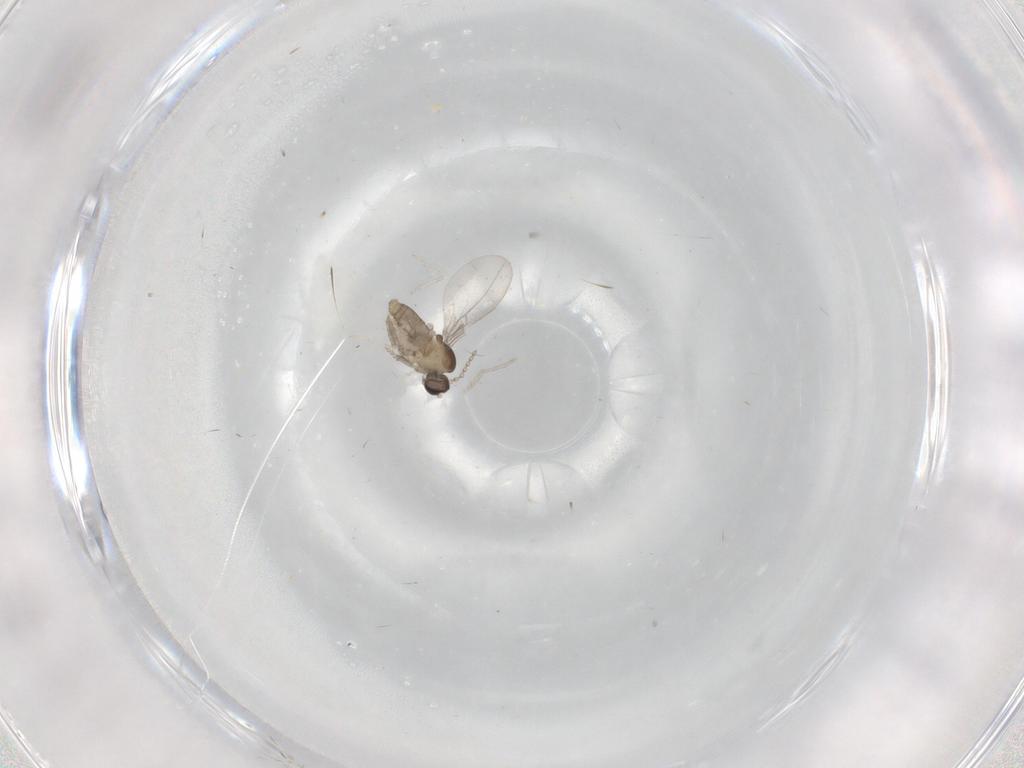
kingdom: Animalia
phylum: Arthropoda
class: Insecta
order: Diptera
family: Cecidomyiidae
